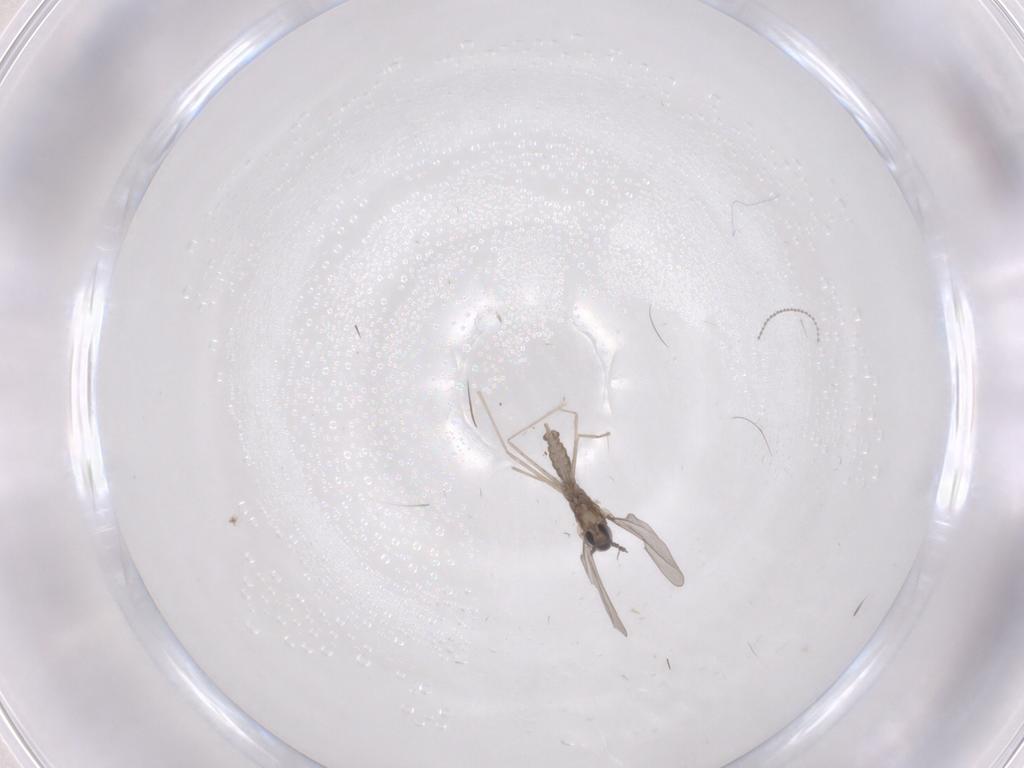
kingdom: Animalia
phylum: Arthropoda
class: Insecta
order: Diptera
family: Cecidomyiidae
